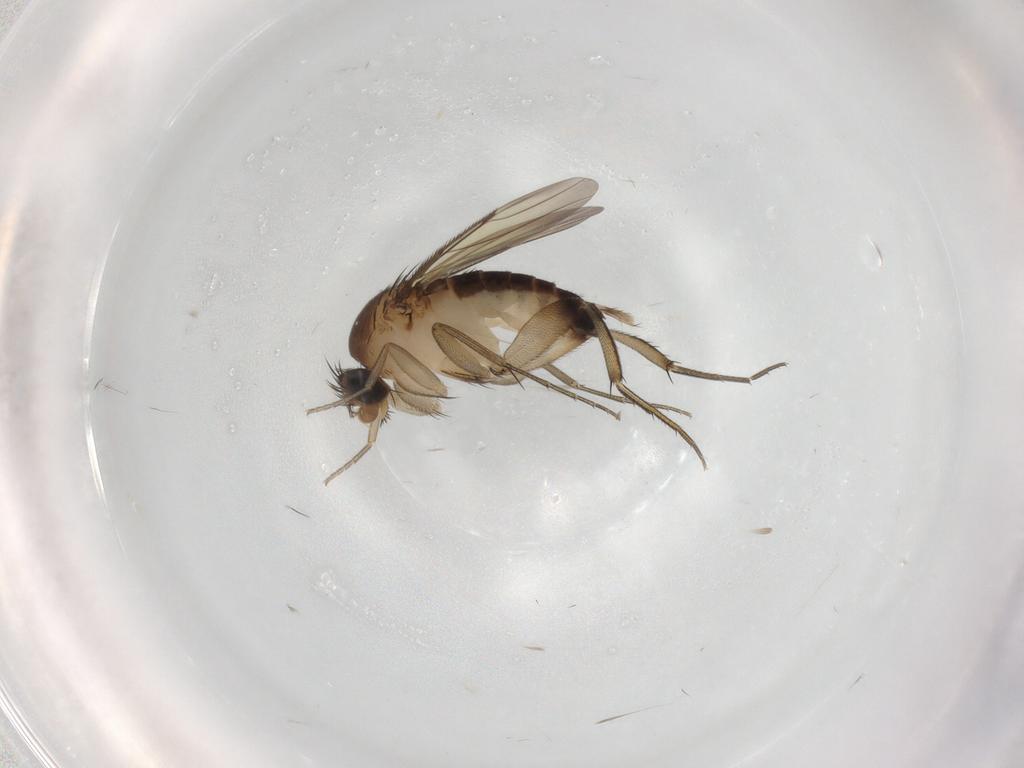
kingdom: Animalia
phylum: Arthropoda
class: Insecta
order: Diptera
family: Phoridae
